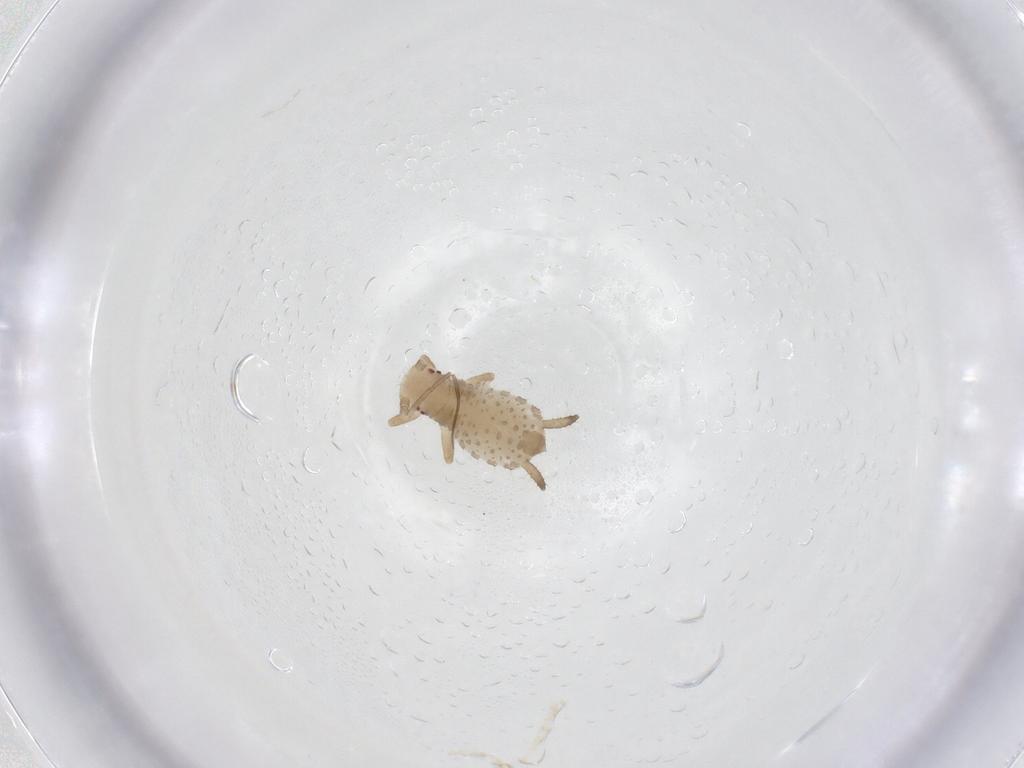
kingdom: Animalia
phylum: Arthropoda
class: Insecta
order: Hemiptera
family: Aphididae
